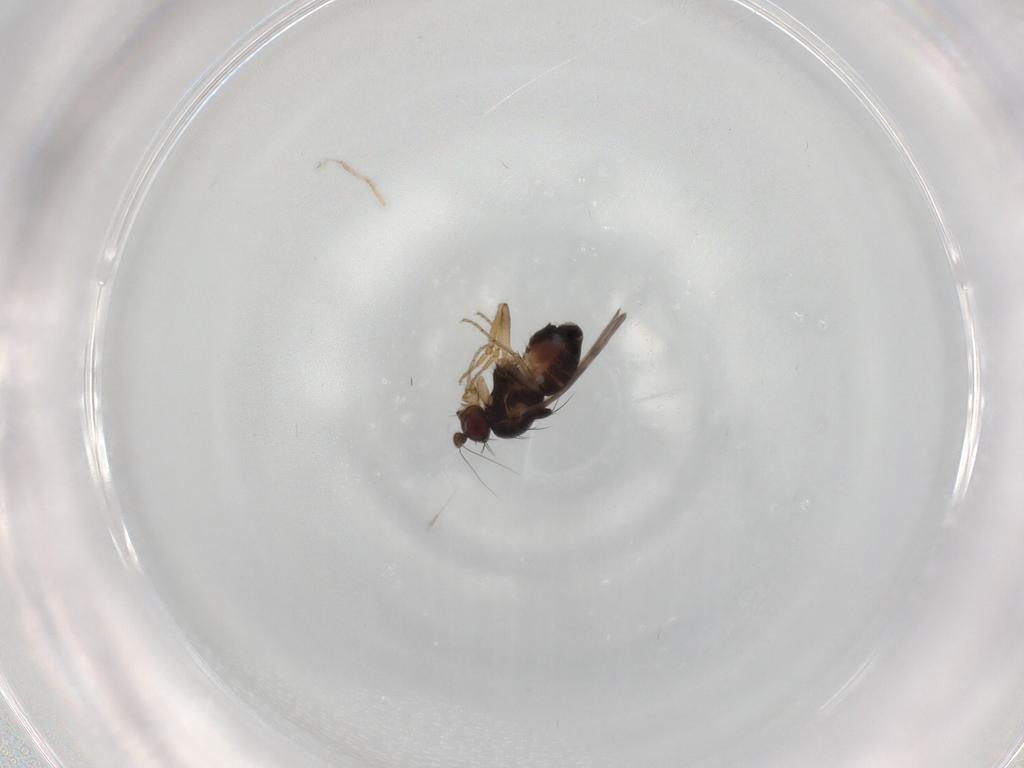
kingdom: Animalia
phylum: Arthropoda
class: Insecta
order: Diptera
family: Sphaeroceridae
